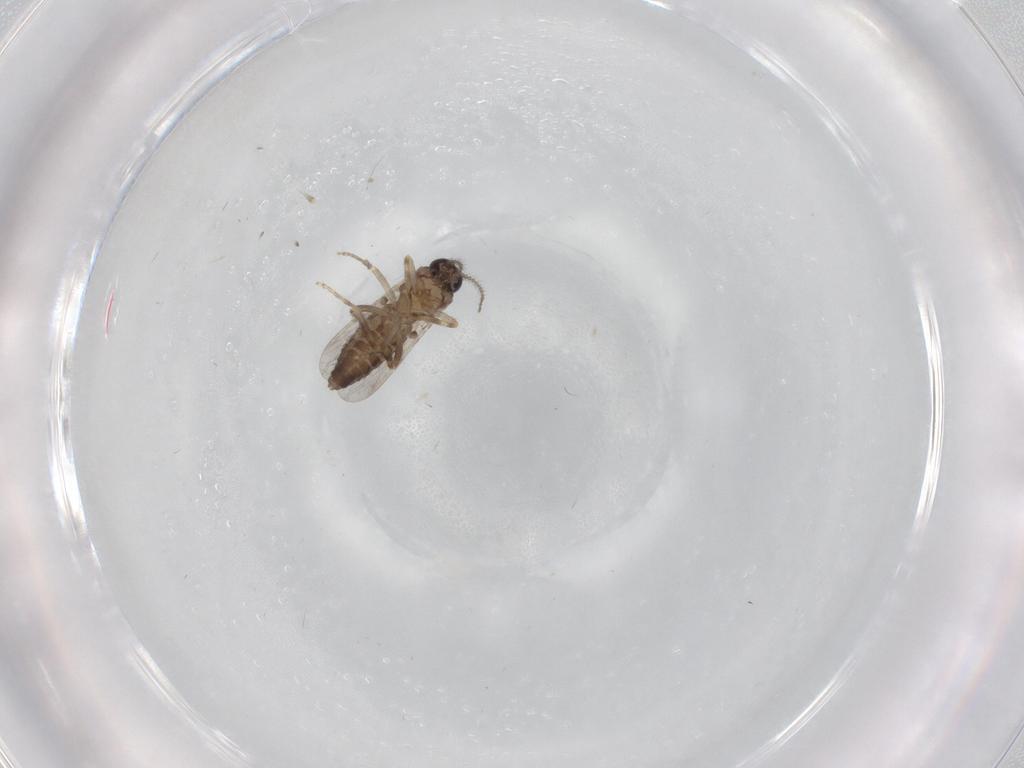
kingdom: Animalia
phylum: Arthropoda
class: Insecta
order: Diptera
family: Ceratopogonidae
